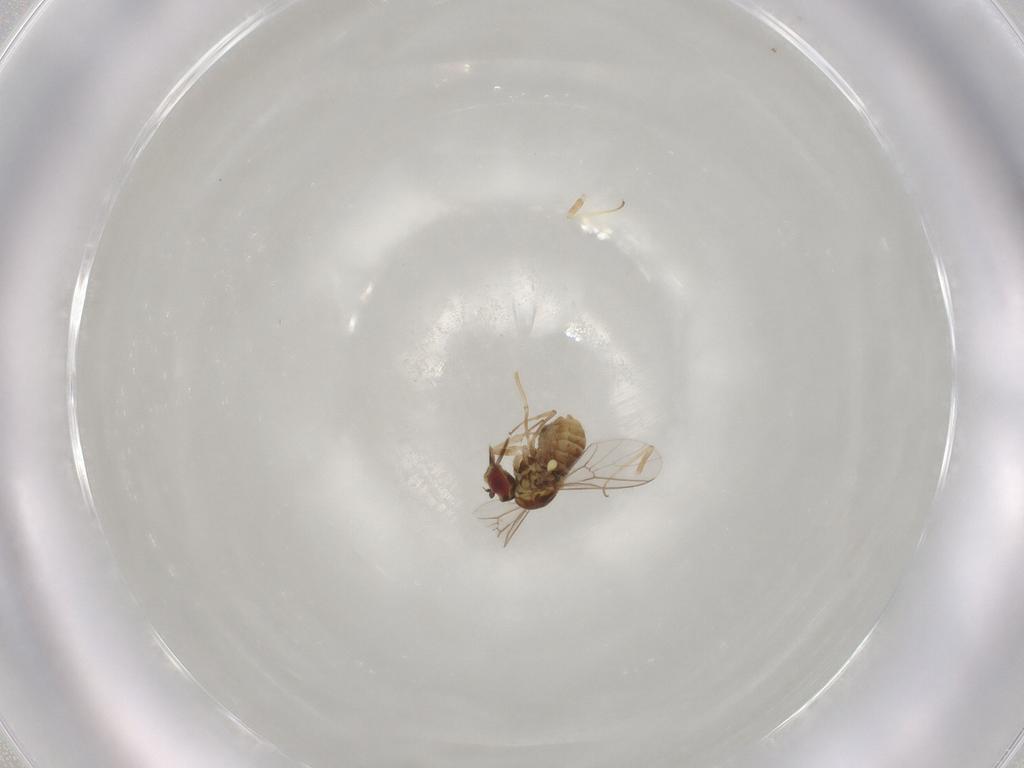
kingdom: Animalia
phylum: Arthropoda
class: Insecta
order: Diptera
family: Mythicomyiidae
